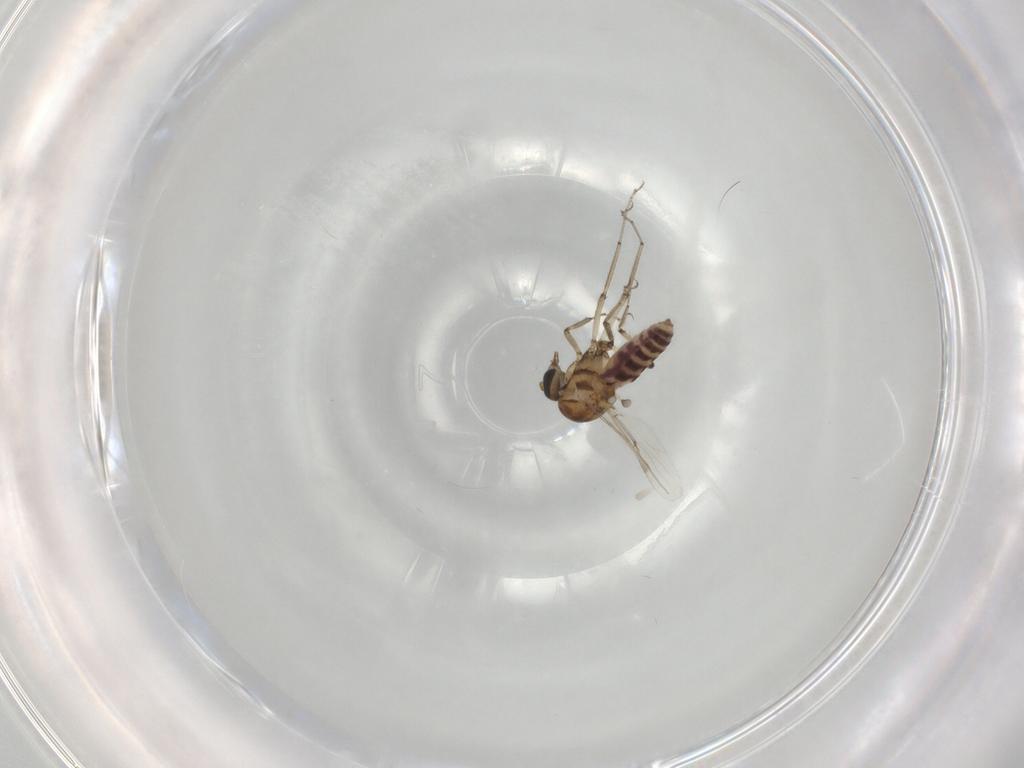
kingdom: Animalia
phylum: Arthropoda
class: Insecta
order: Diptera
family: Ceratopogonidae
